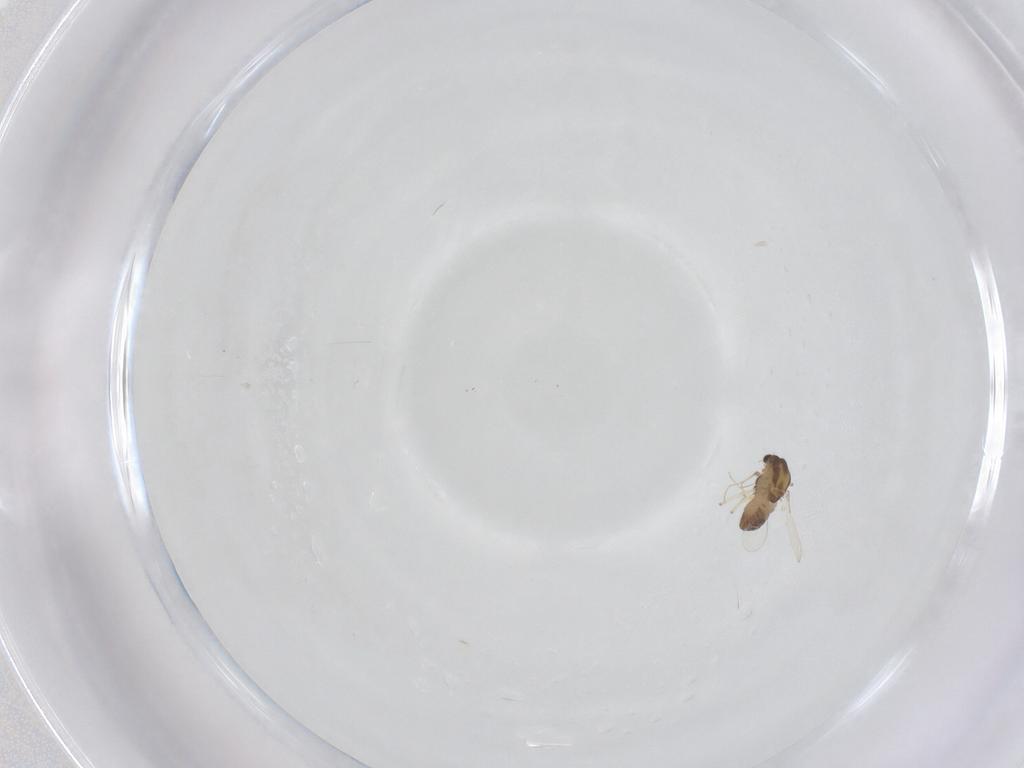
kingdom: Animalia
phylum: Arthropoda
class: Insecta
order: Diptera
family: Chironomidae
